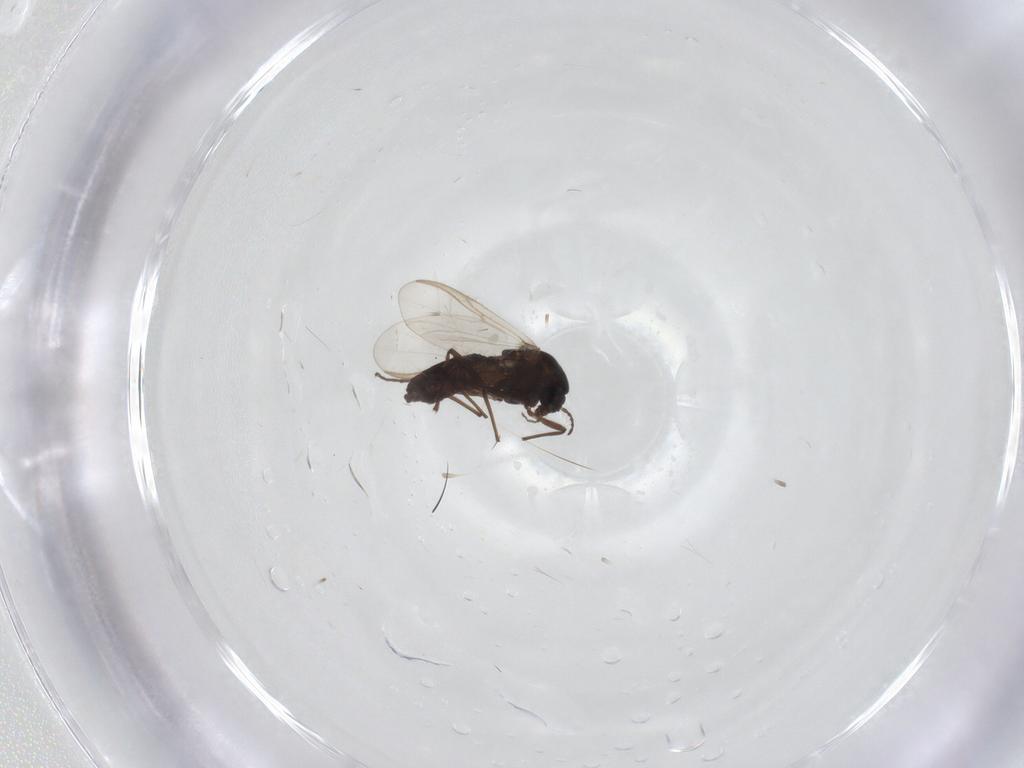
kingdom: Animalia
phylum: Arthropoda
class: Insecta
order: Diptera
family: Chironomidae
